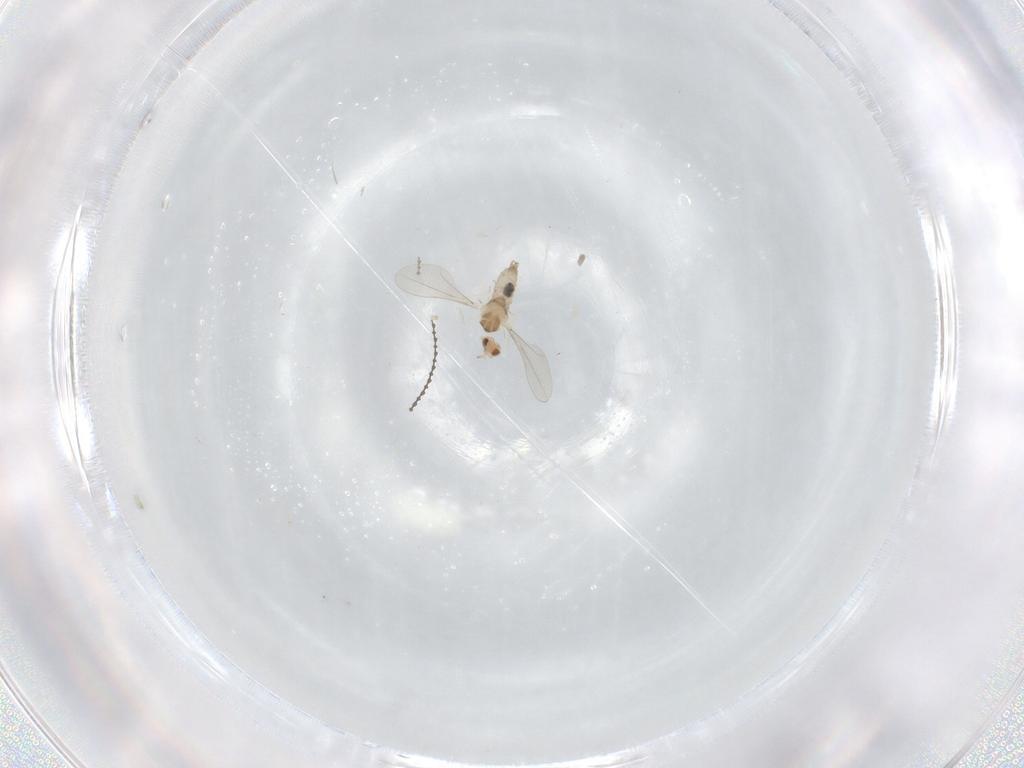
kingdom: Animalia
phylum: Arthropoda
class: Insecta
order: Diptera
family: Cecidomyiidae
